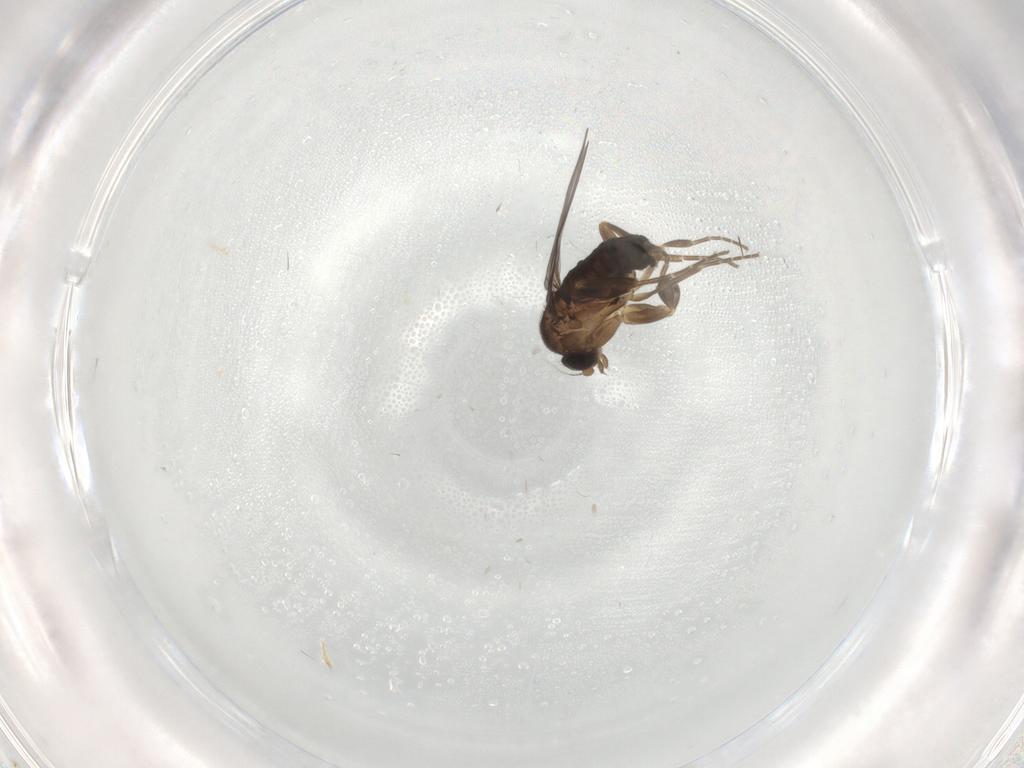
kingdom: Animalia
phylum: Arthropoda
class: Insecta
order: Diptera
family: Phoridae
